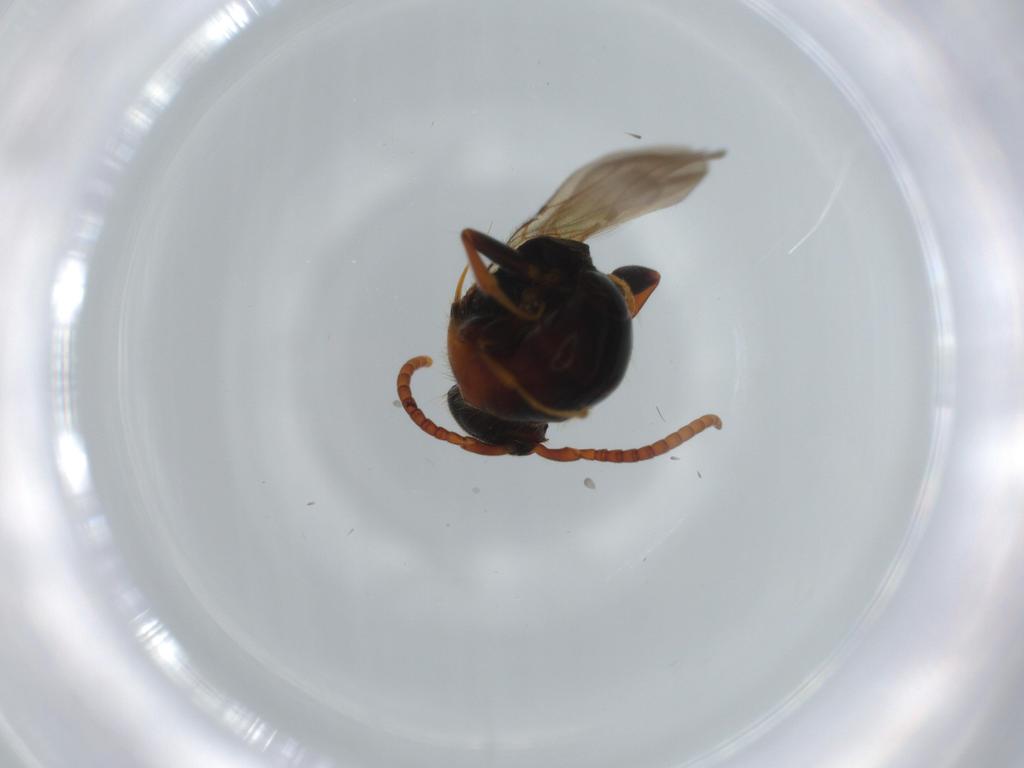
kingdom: Animalia
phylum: Arthropoda
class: Insecta
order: Hymenoptera
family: Bethylidae
